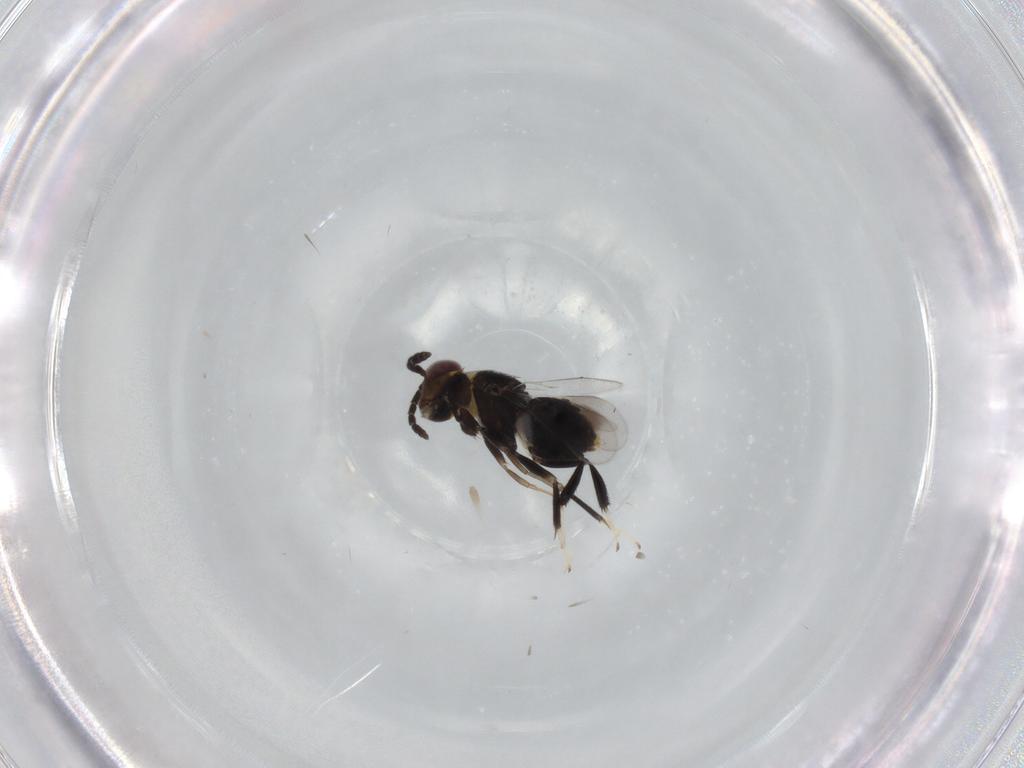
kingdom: Animalia
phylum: Arthropoda
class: Insecta
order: Hymenoptera
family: Aphelinidae
